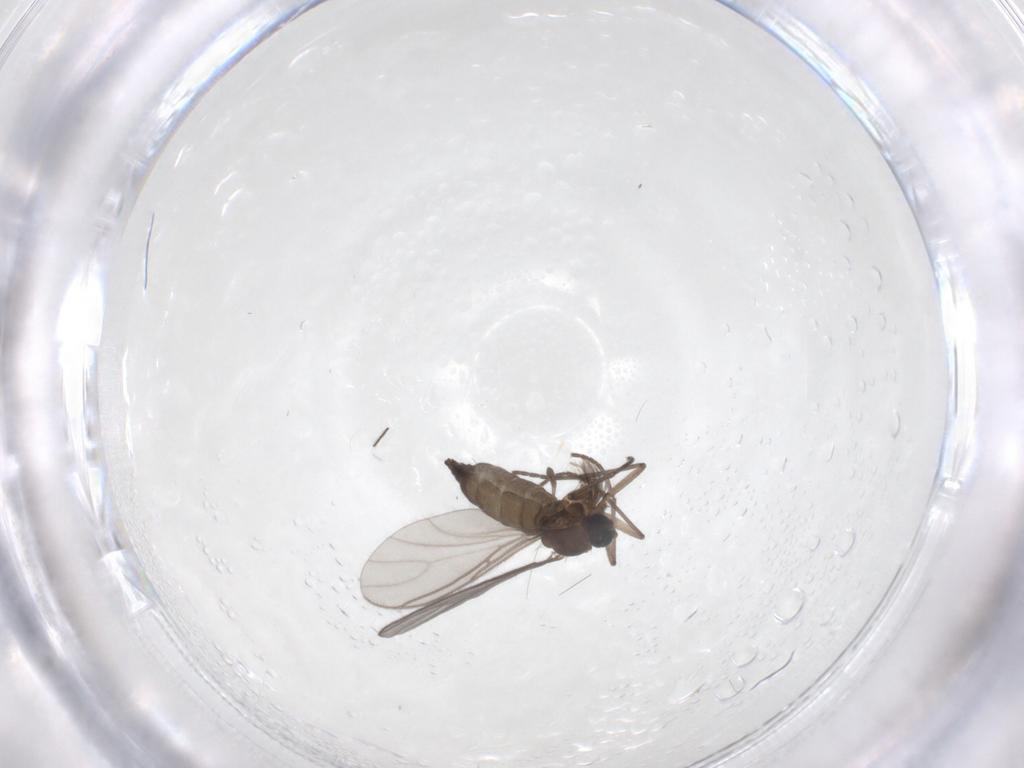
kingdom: Animalia
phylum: Arthropoda
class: Insecta
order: Diptera
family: Ceratopogonidae
